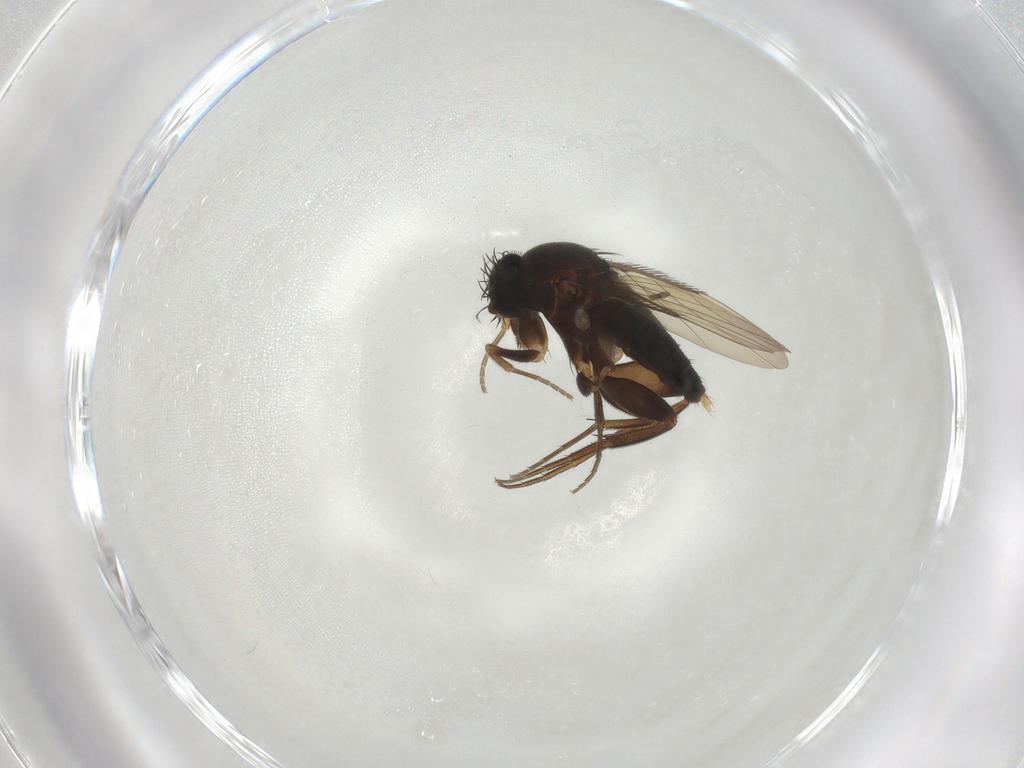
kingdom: Animalia
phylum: Arthropoda
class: Insecta
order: Diptera
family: Phoridae
